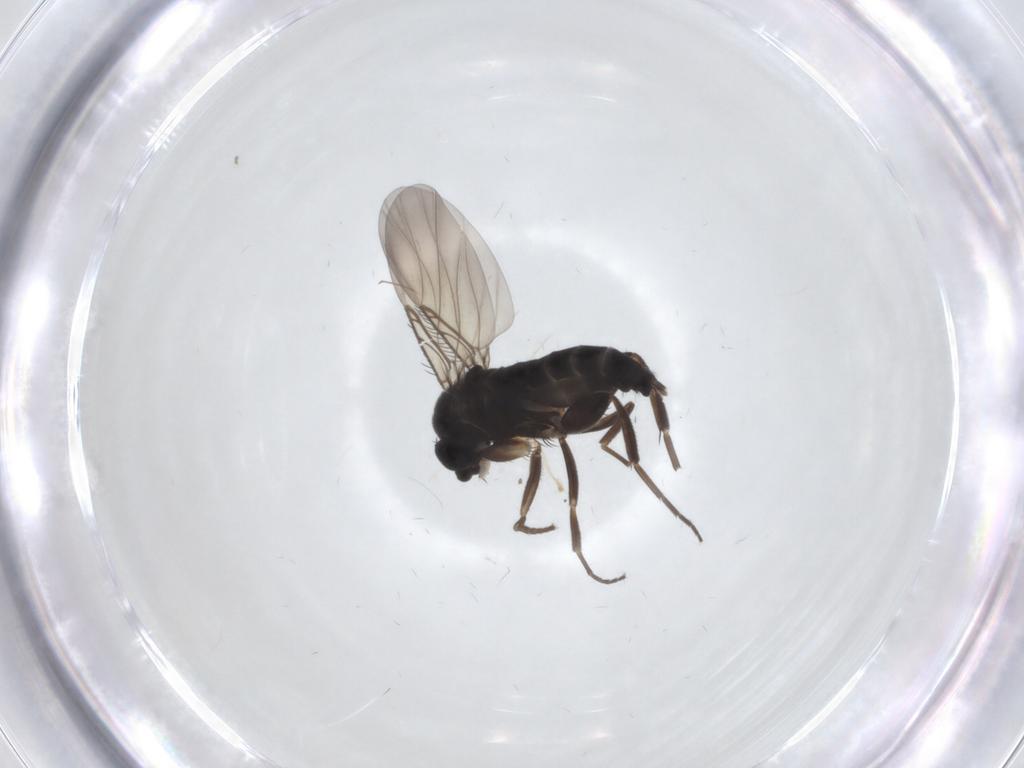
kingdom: Animalia
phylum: Arthropoda
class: Insecta
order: Diptera
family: Phoridae
